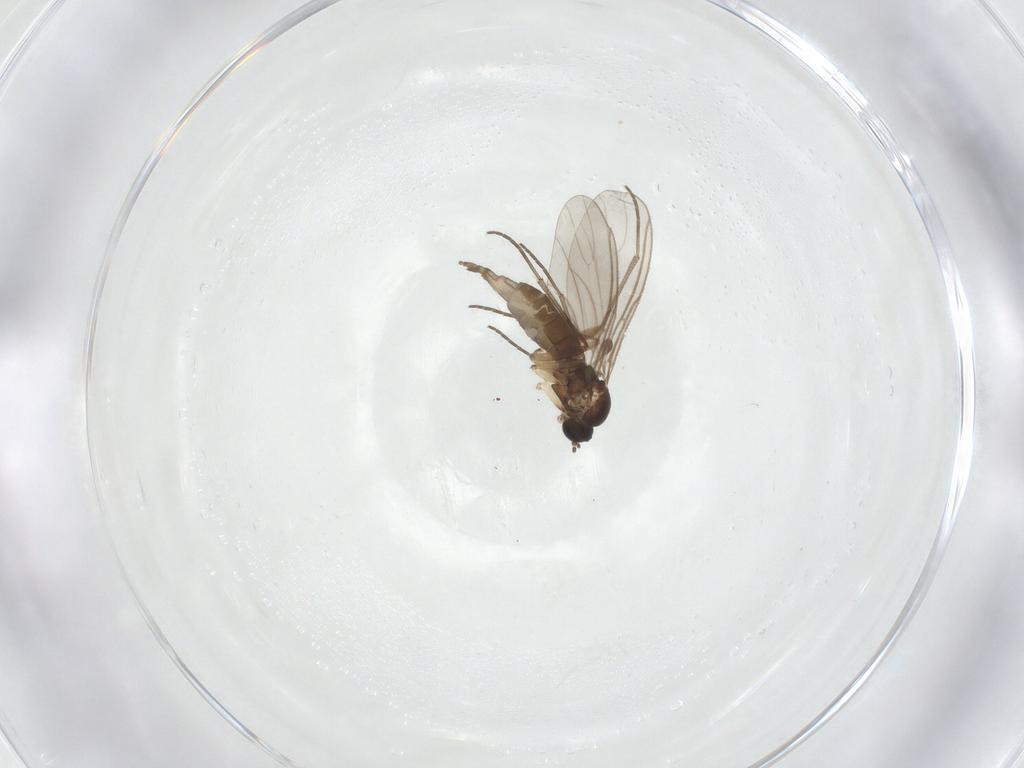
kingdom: Animalia
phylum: Arthropoda
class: Insecta
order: Diptera
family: Sciaridae
